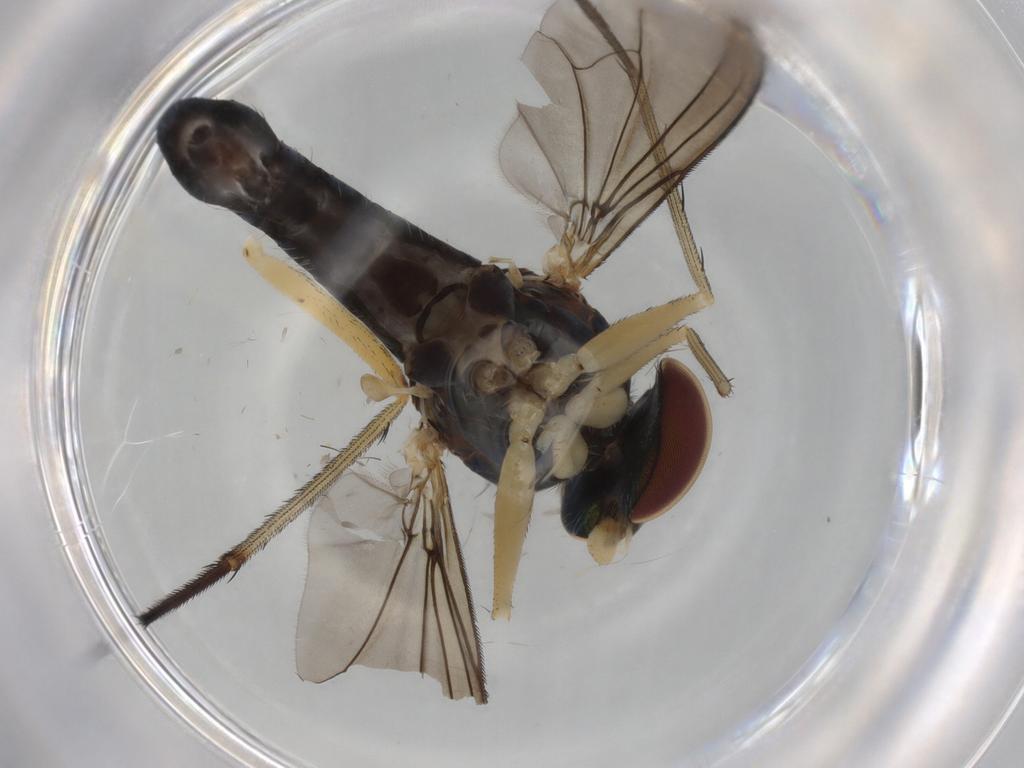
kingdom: Animalia
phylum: Arthropoda
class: Insecta
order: Diptera
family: Dolichopodidae
